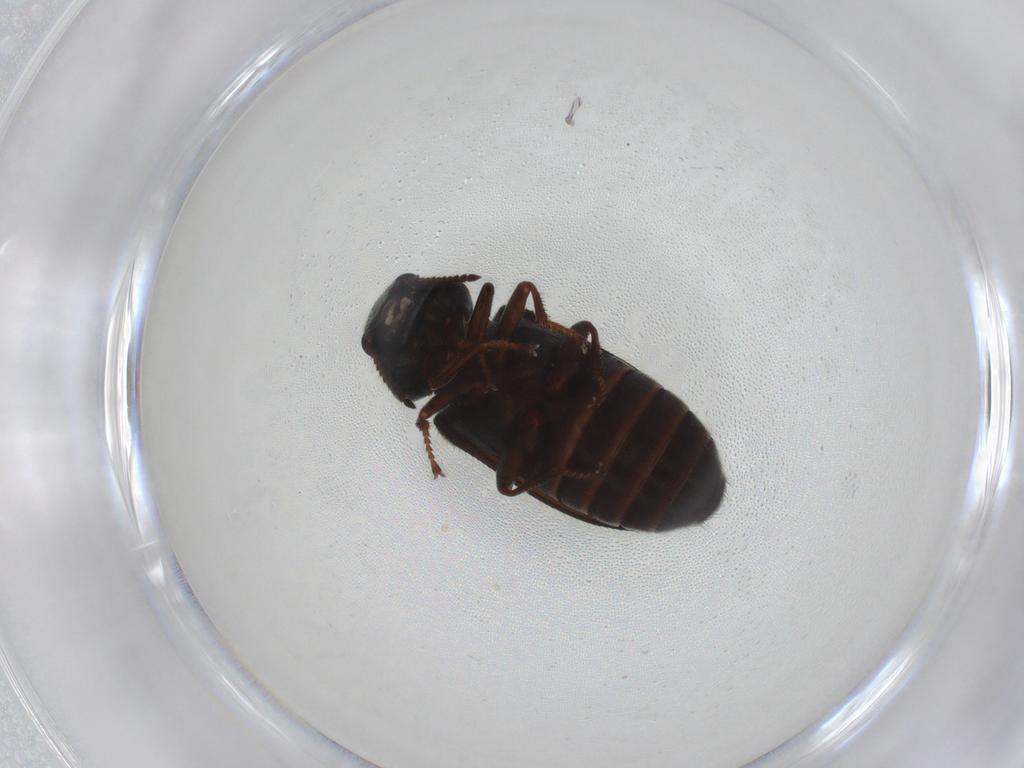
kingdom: Animalia
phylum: Arthropoda
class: Insecta
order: Coleoptera
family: Dasytidae
